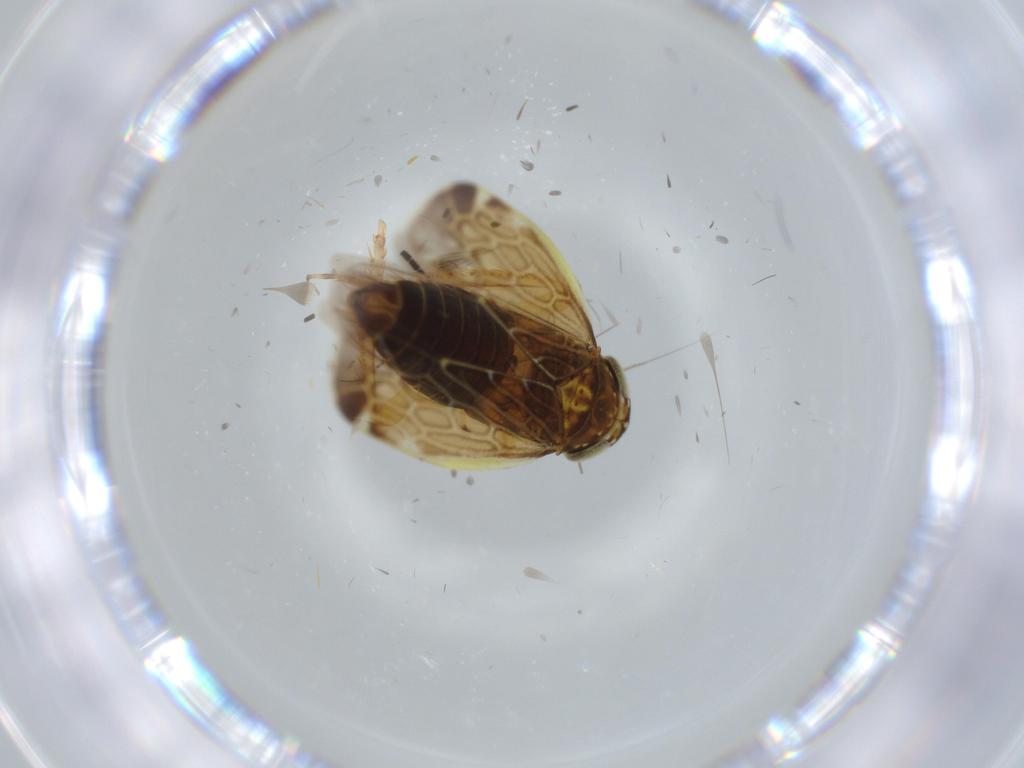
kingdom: Animalia
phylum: Arthropoda
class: Insecta
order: Hemiptera
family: Cicadellidae
